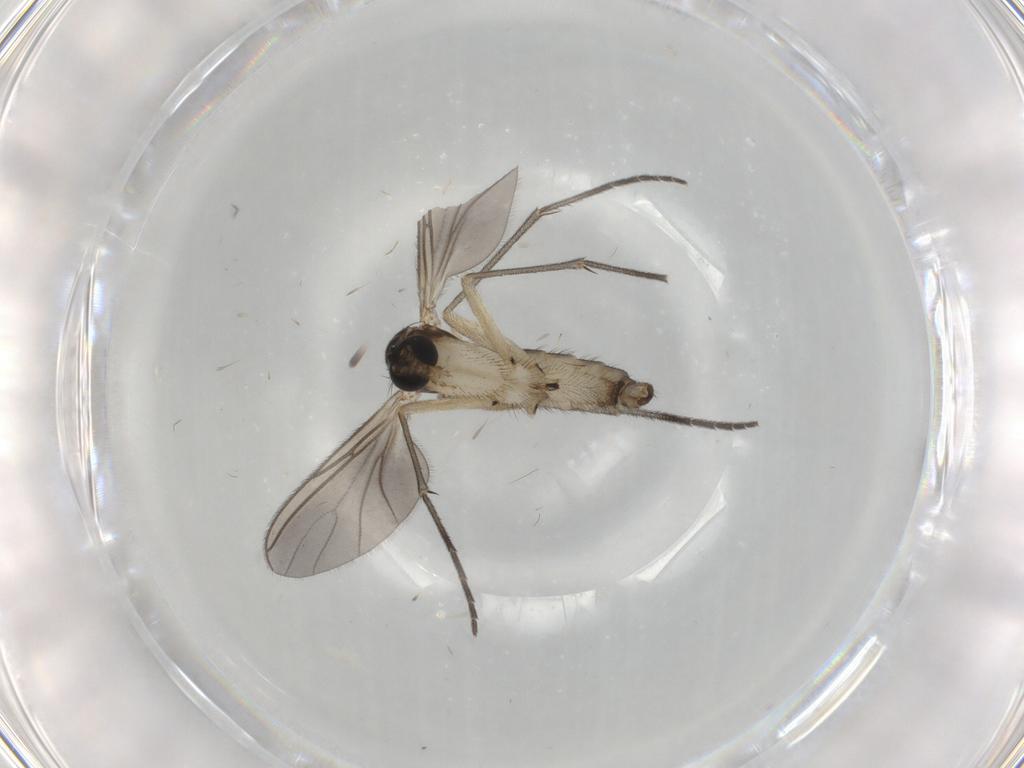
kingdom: Animalia
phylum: Arthropoda
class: Insecta
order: Diptera
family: Sciaridae
